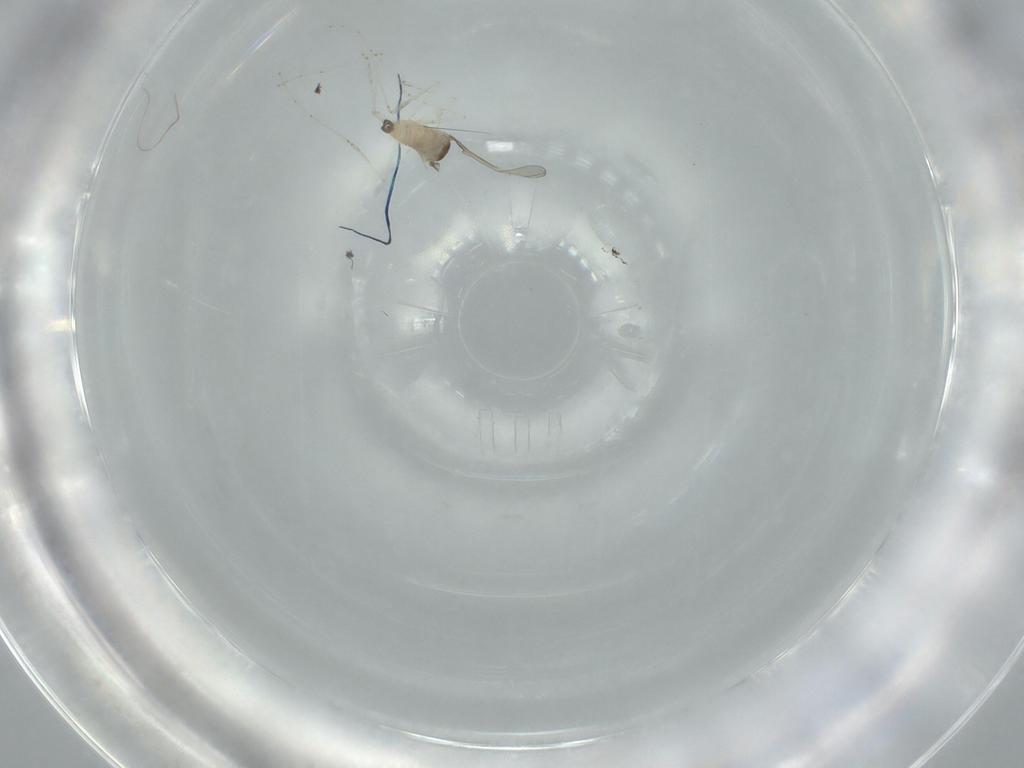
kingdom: Animalia
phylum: Arthropoda
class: Insecta
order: Diptera
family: Cecidomyiidae
